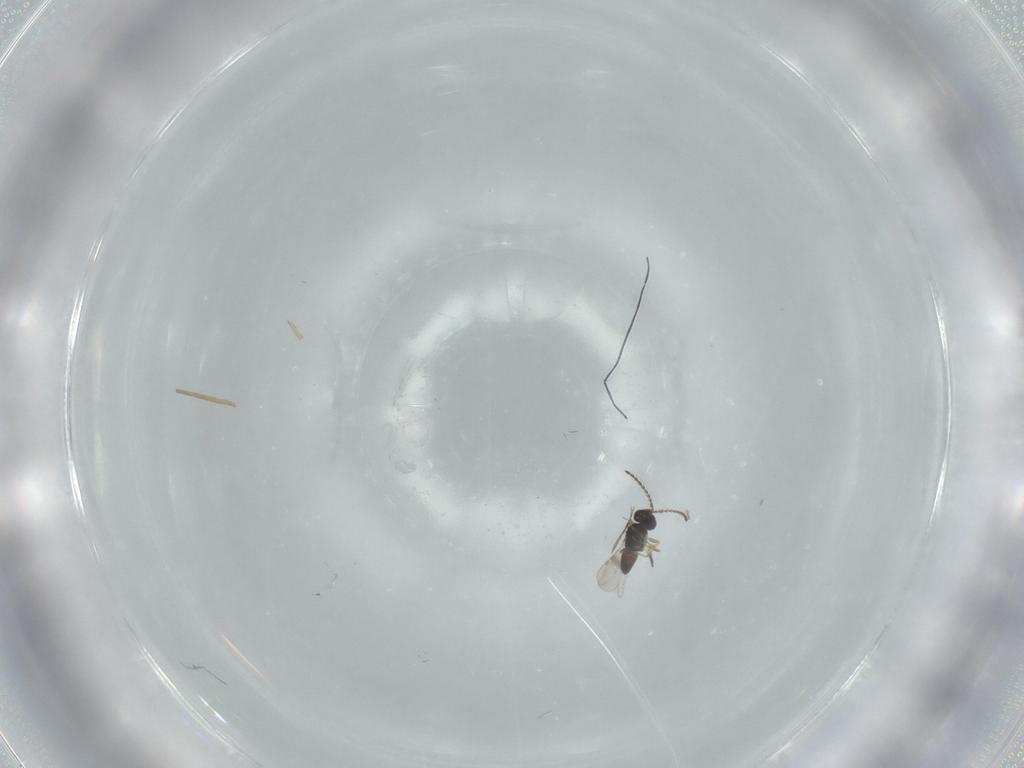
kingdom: Animalia
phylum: Arthropoda
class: Insecta
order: Hymenoptera
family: Ceraphronidae
